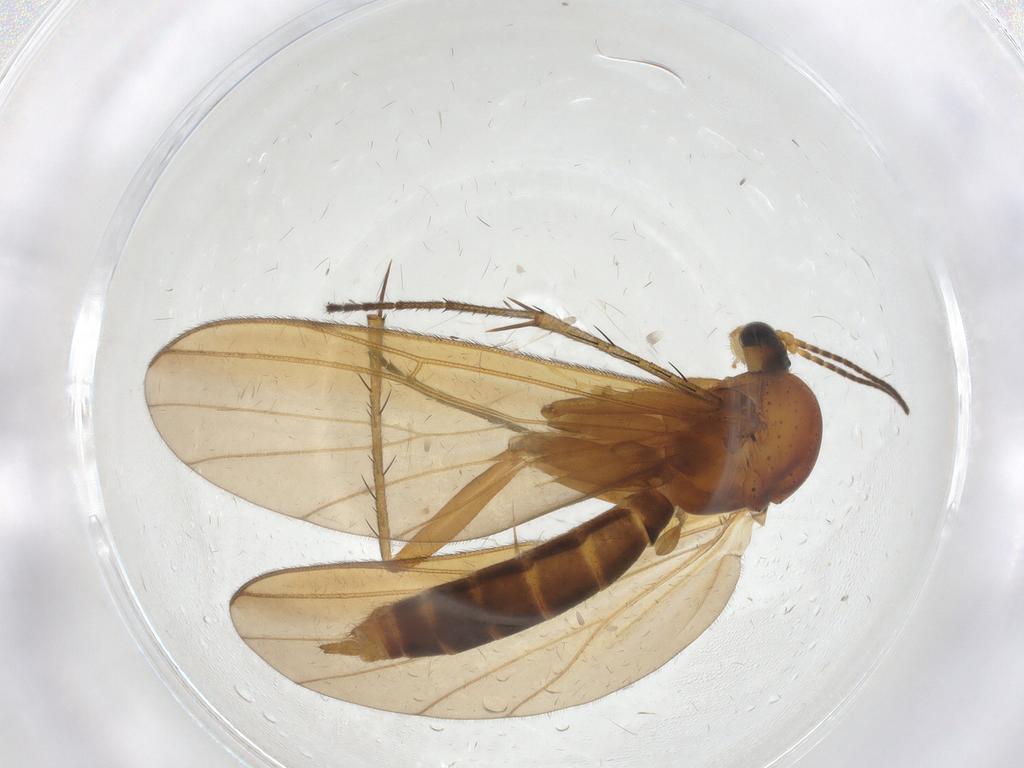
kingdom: Animalia
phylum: Arthropoda
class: Insecta
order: Diptera
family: Mycetophilidae
